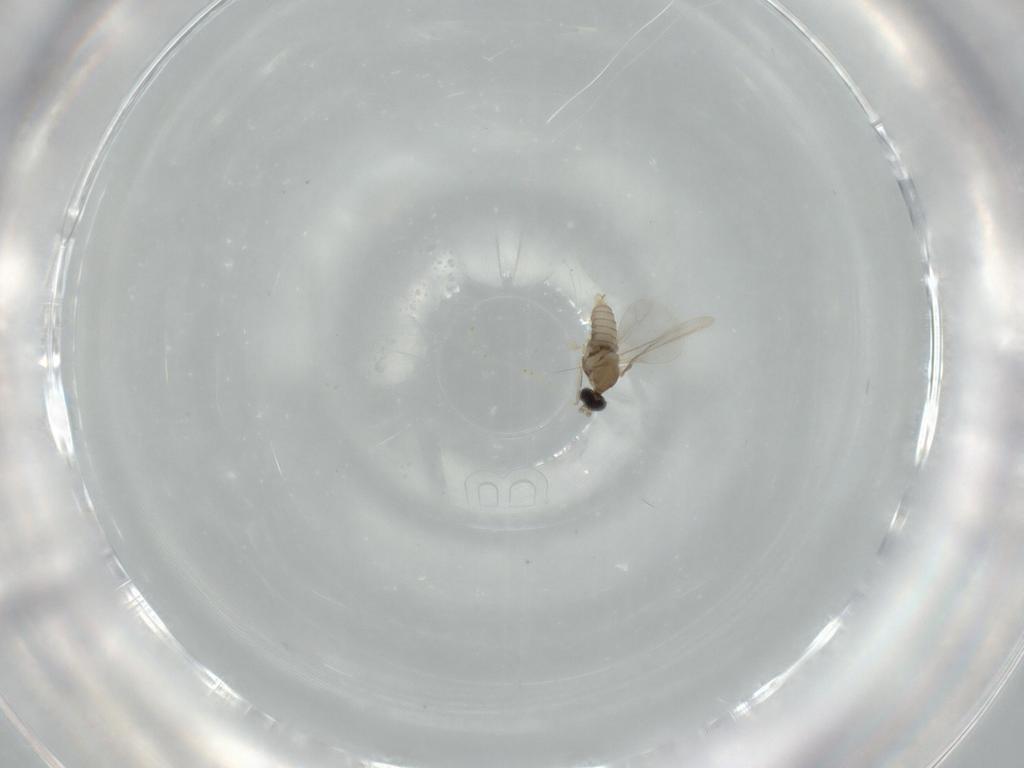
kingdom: Animalia
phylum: Arthropoda
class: Insecta
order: Diptera
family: Cecidomyiidae
